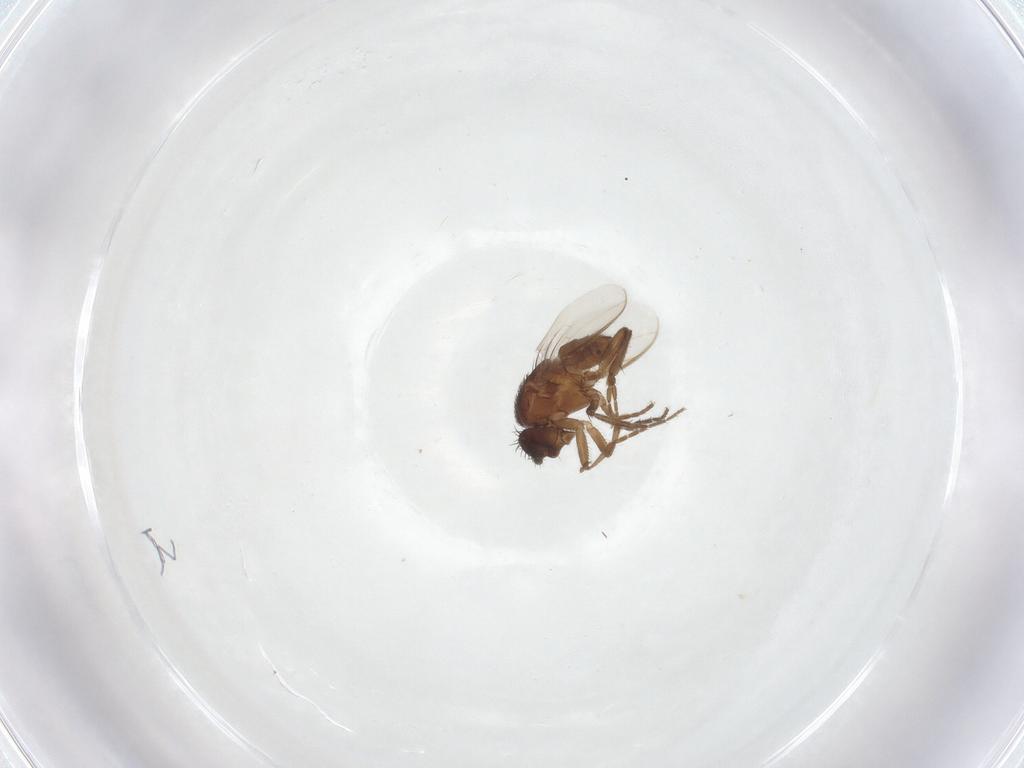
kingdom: Animalia
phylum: Arthropoda
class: Insecta
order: Diptera
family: Sphaeroceridae
